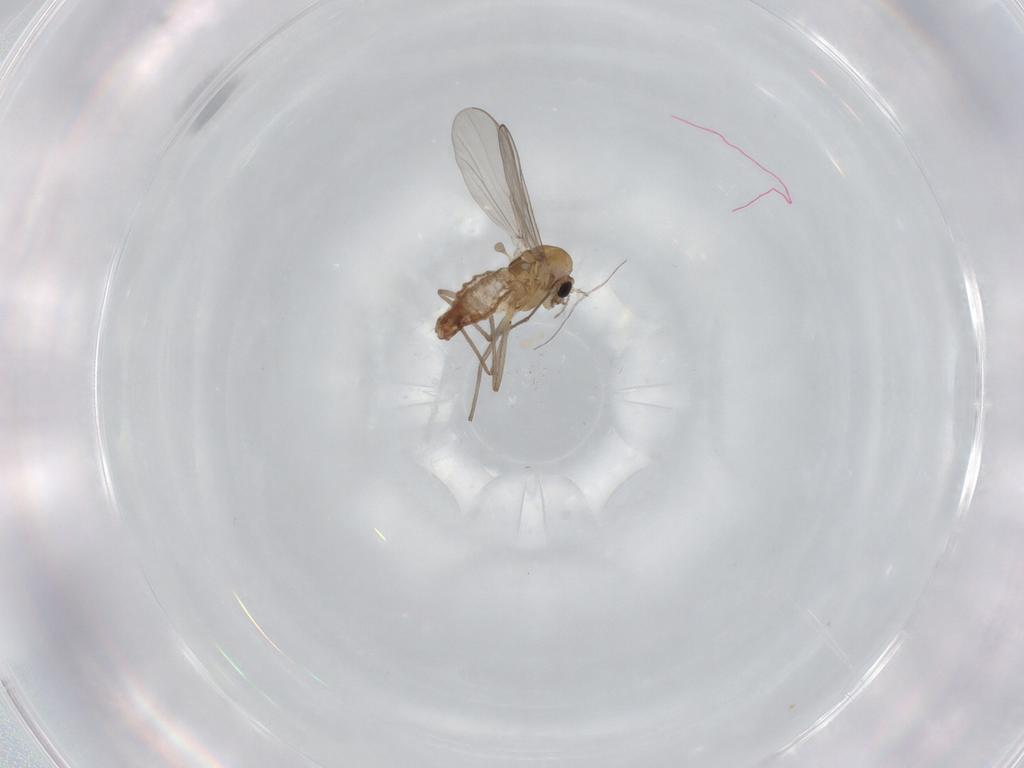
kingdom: Animalia
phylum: Arthropoda
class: Insecta
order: Diptera
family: Chironomidae
